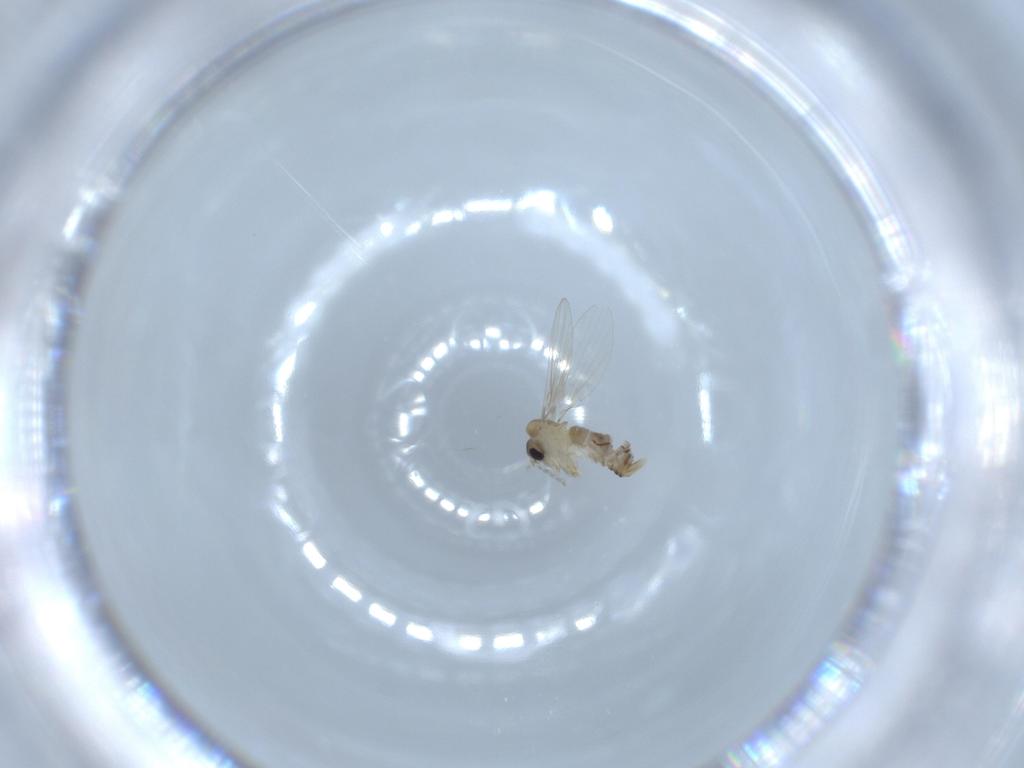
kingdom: Animalia
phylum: Arthropoda
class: Insecta
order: Diptera
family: Psychodidae
